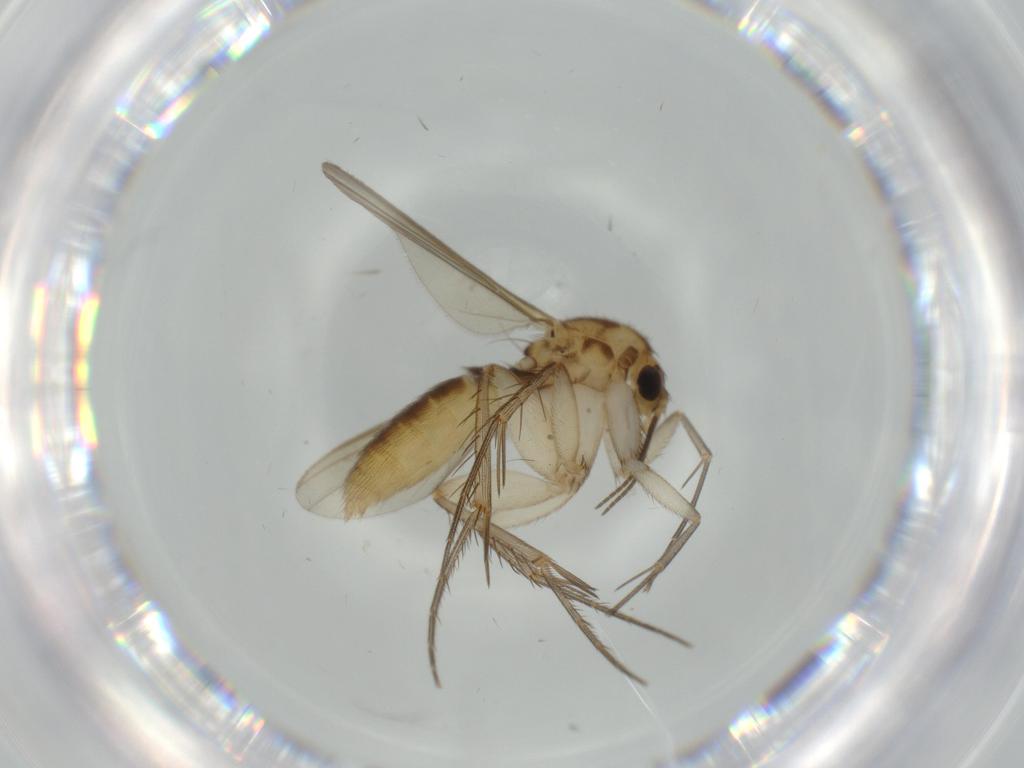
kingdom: Animalia
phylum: Arthropoda
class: Insecta
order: Diptera
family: Mycetophilidae
